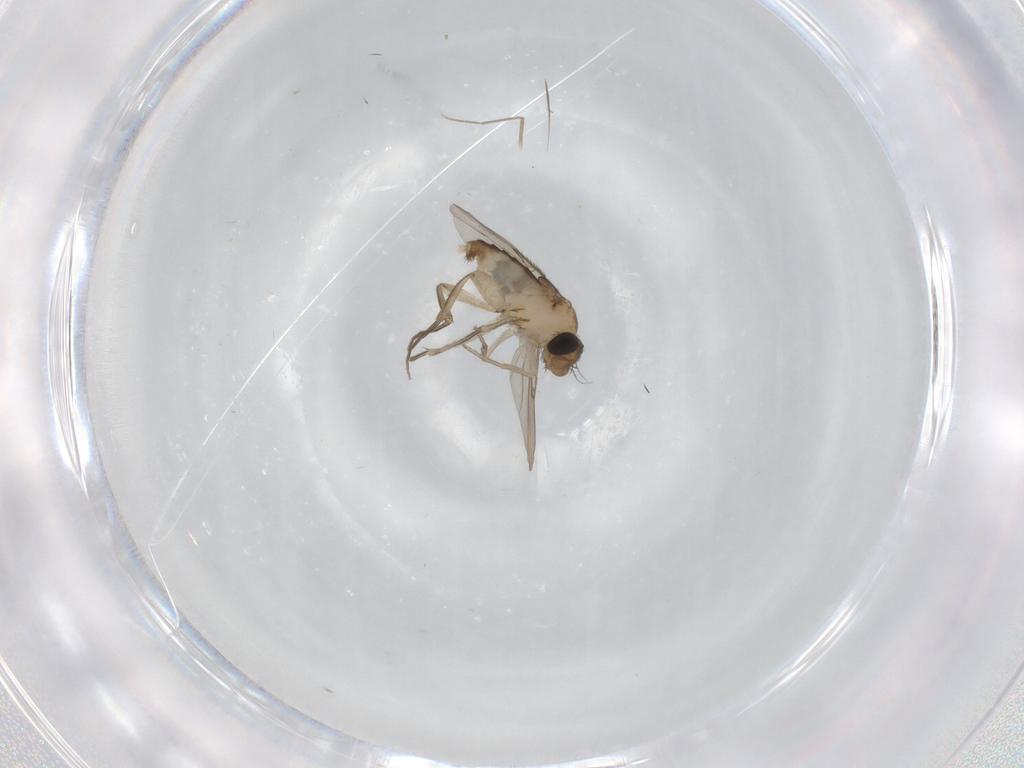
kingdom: Animalia
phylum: Arthropoda
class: Insecta
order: Diptera
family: Phoridae
